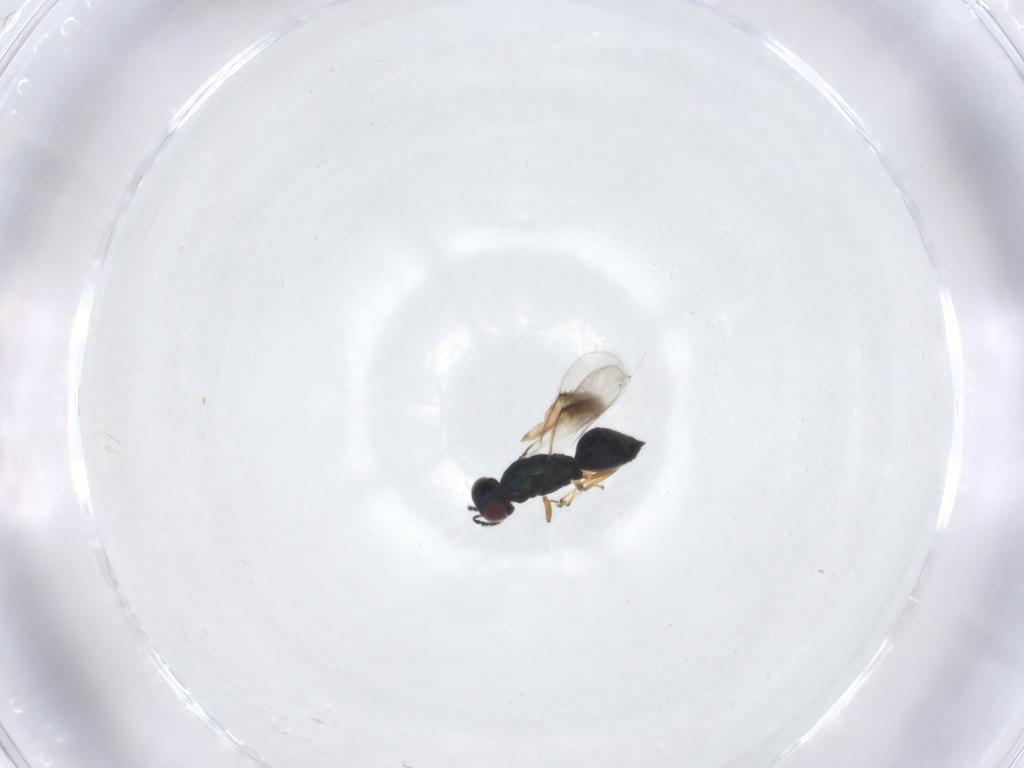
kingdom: Animalia
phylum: Arthropoda
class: Insecta
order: Hymenoptera
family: Eulophidae
